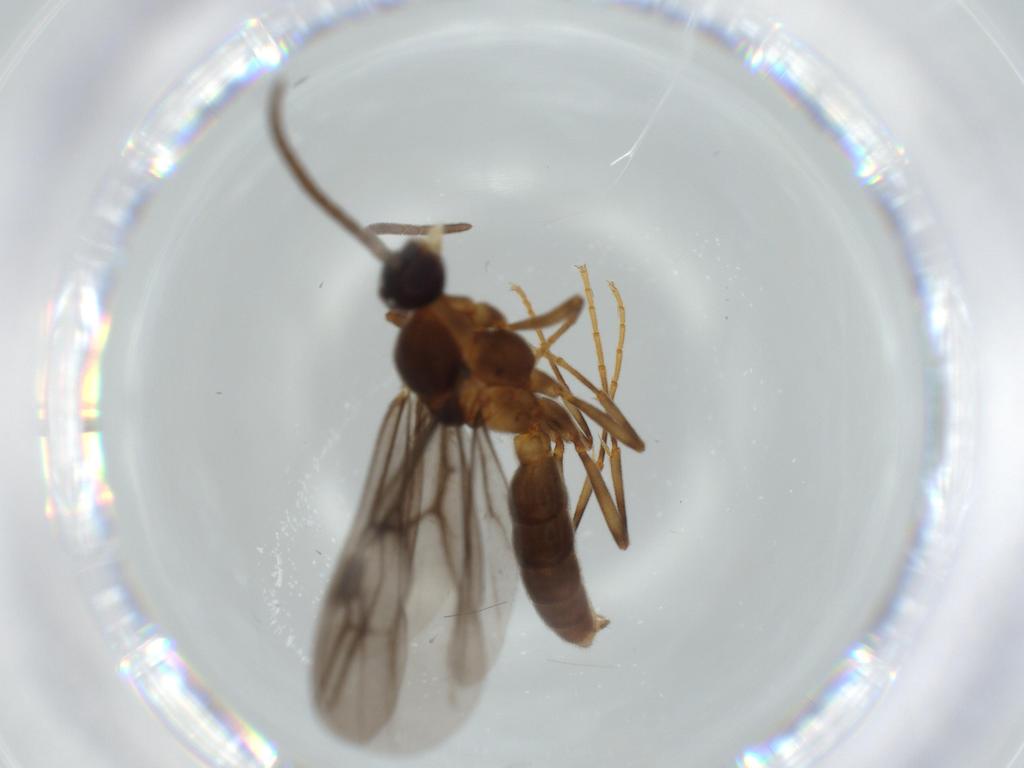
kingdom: Animalia
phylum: Arthropoda
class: Insecta
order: Hymenoptera
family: Formicidae
